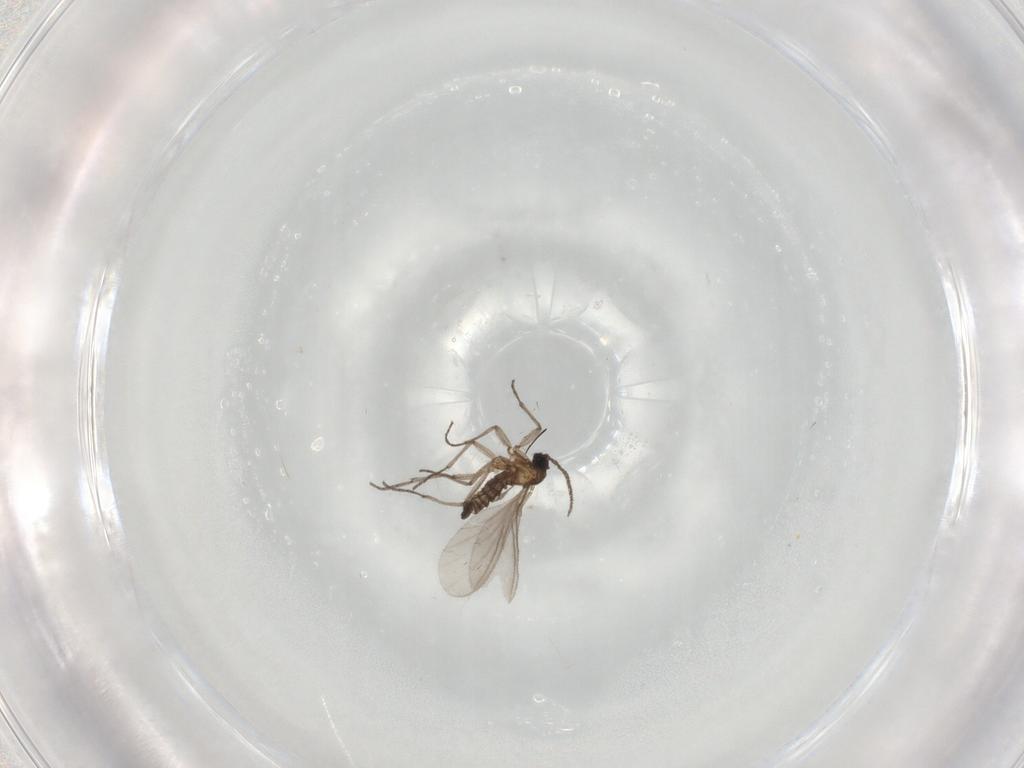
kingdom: Animalia
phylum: Arthropoda
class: Insecta
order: Diptera
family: Sciaridae
